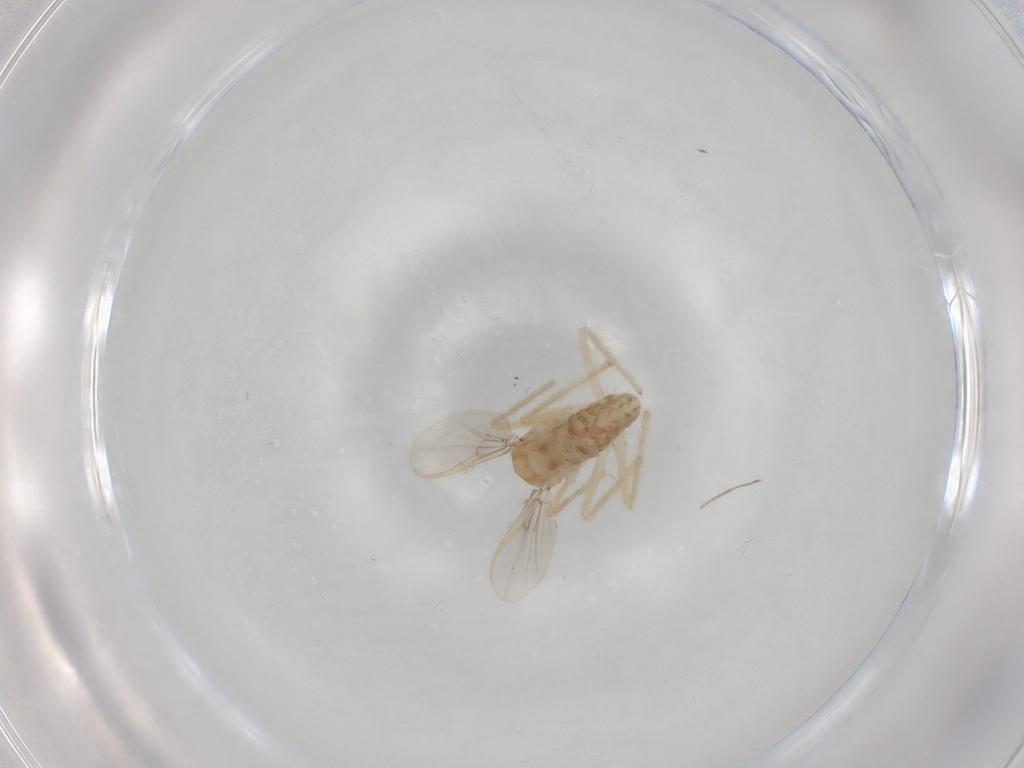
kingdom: Animalia
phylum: Arthropoda
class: Insecta
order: Diptera
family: Chironomidae
